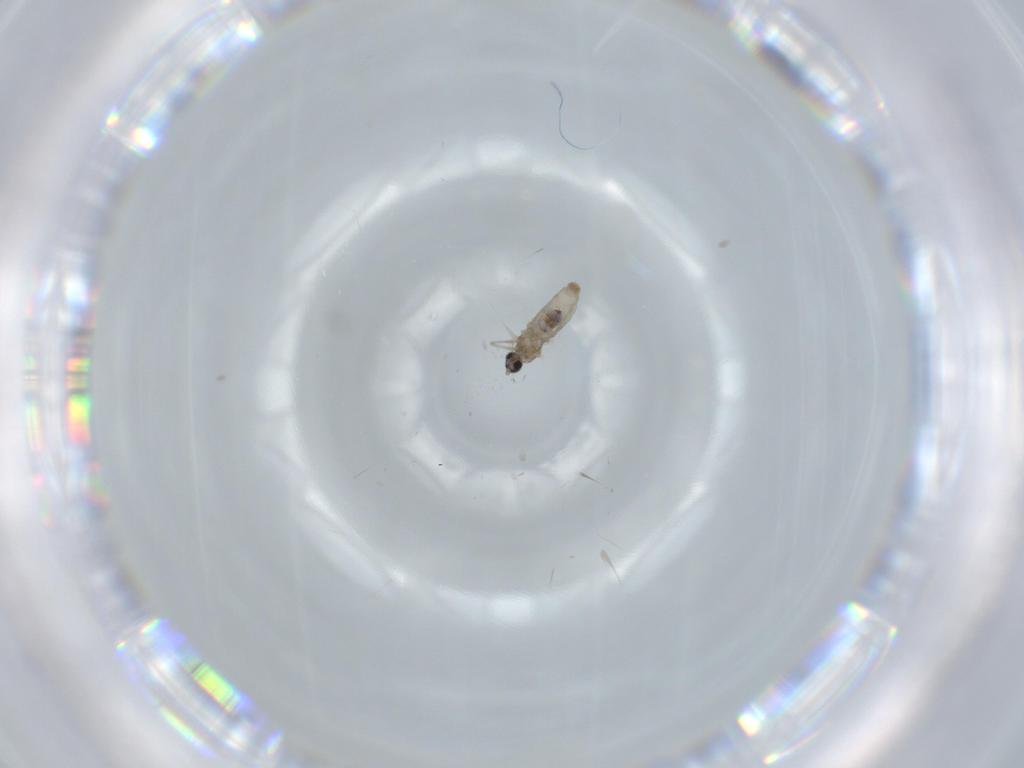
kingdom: Animalia
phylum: Arthropoda
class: Insecta
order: Diptera
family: Cecidomyiidae
